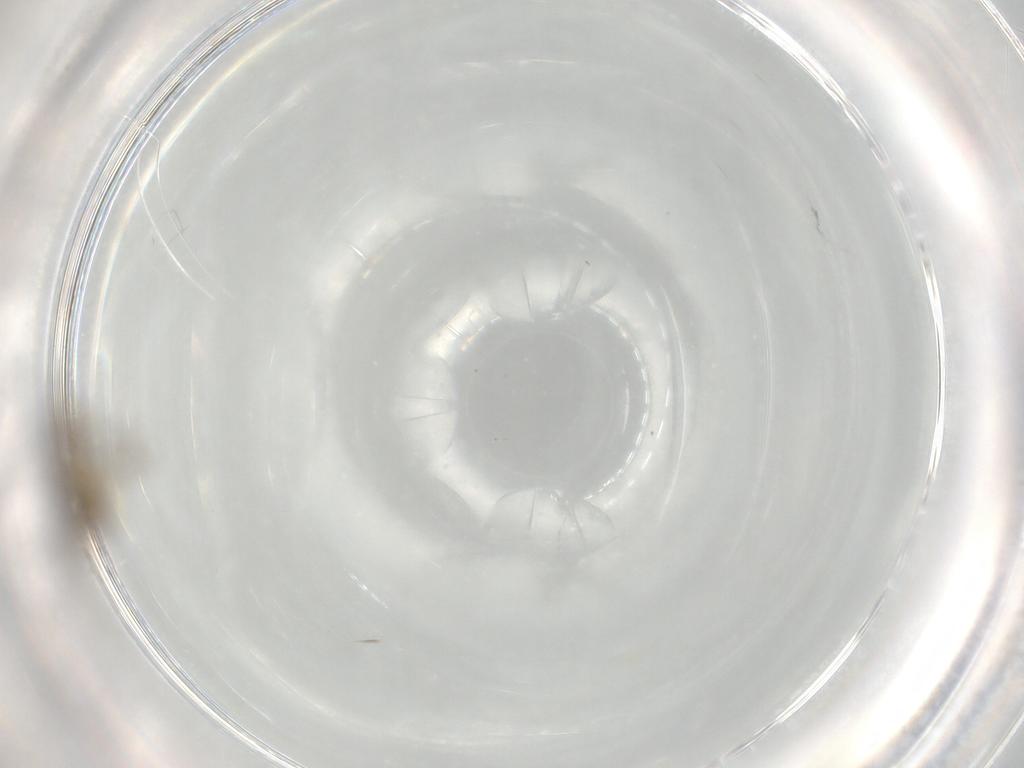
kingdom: Animalia
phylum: Arthropoda
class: Insecta
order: Diptera
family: Chironomidae
